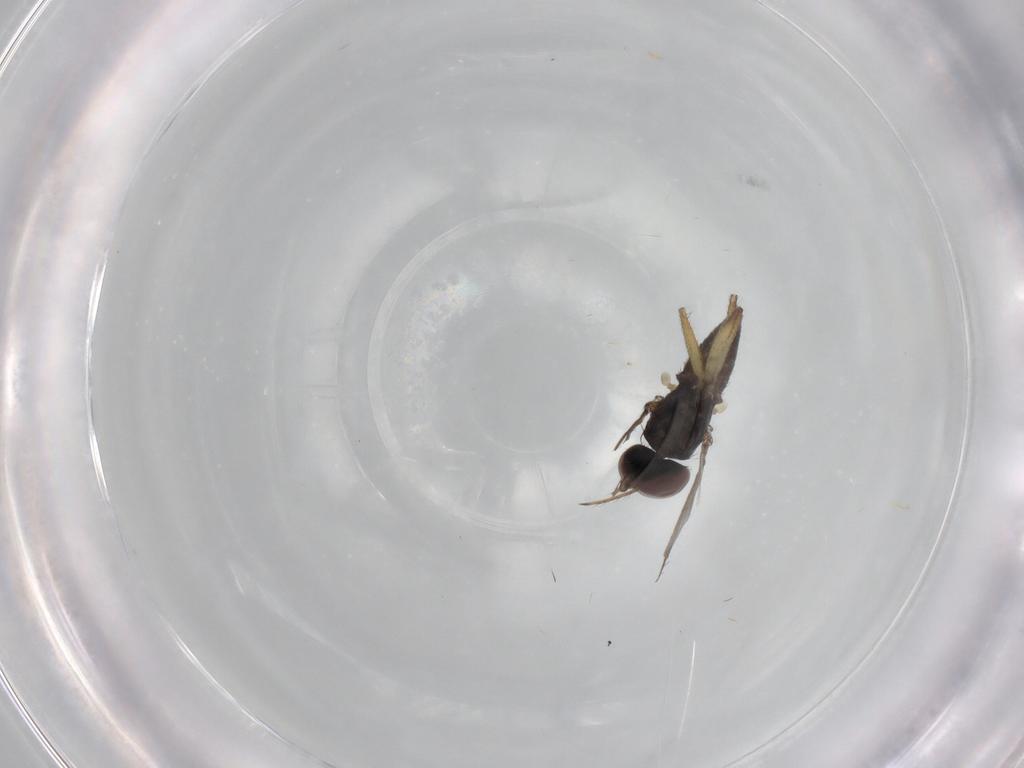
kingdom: Animalia
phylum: Arthropoda
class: Insecta
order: Diptera
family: Dolichopodidae
